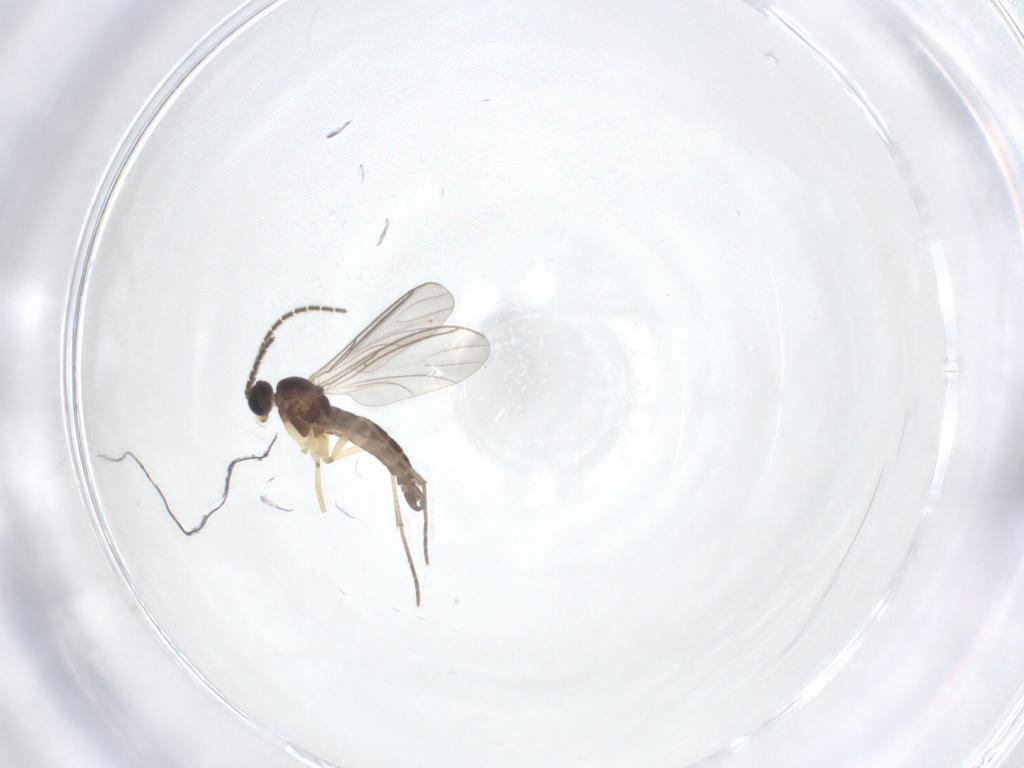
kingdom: Animalia
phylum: Arthropoda
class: Insecta
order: Diptera
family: Sciaridae
